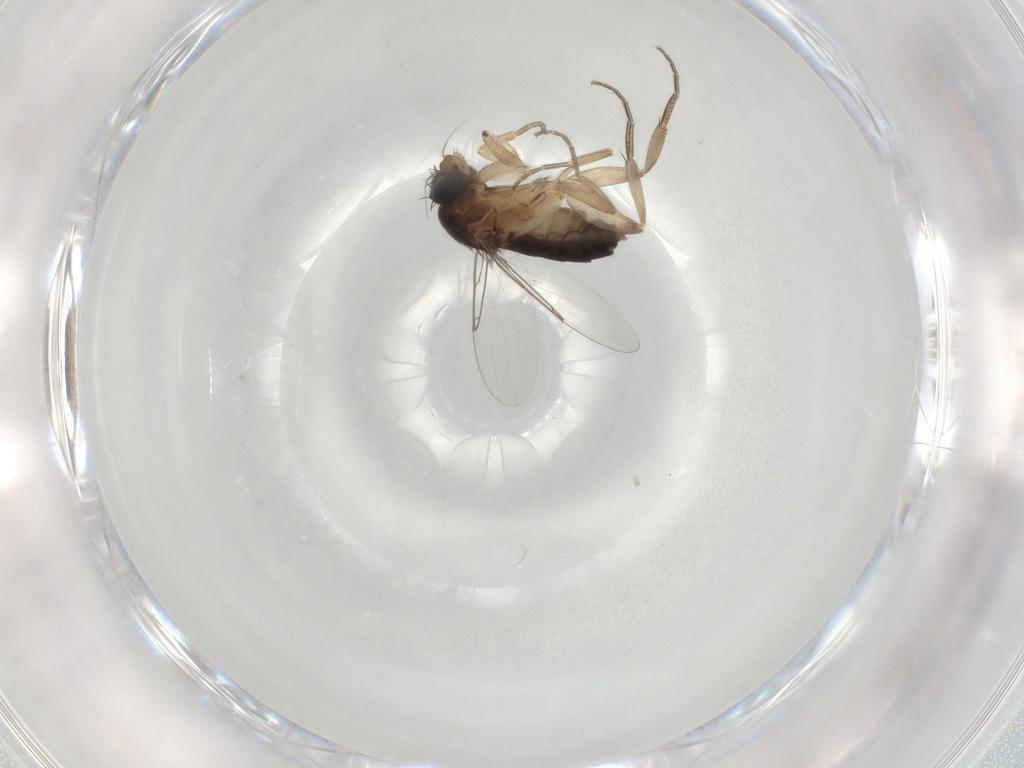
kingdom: Animalia
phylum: Arthropoda
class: Insecta
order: Diptera
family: Phoridae
